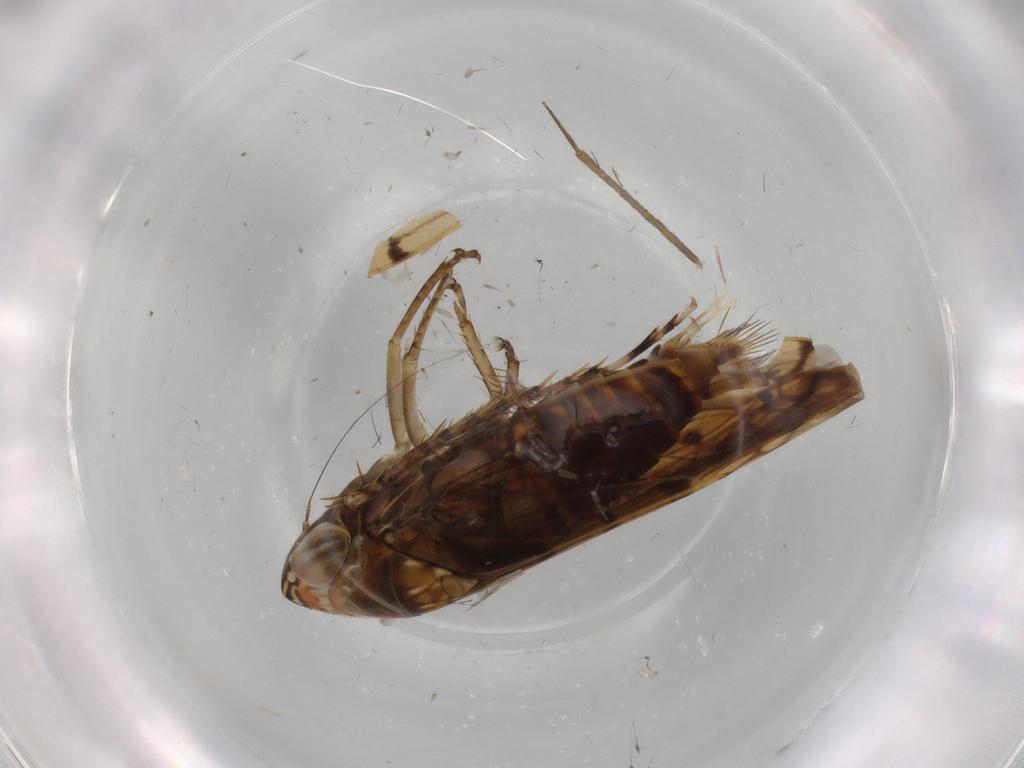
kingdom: Animalia
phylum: Arthropoda
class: Insecta
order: Hemiptera
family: Cicadellidae
